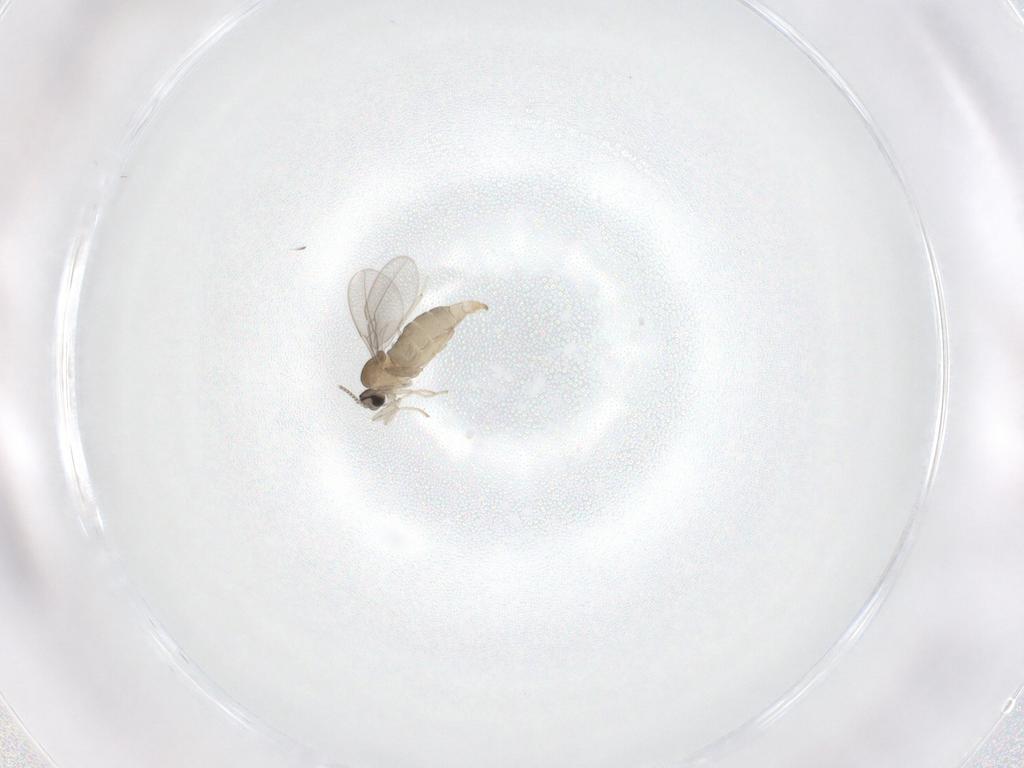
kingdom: Animalia
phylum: Arthropoda
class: Insecta
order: Diptera
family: Cecidomyiidae
